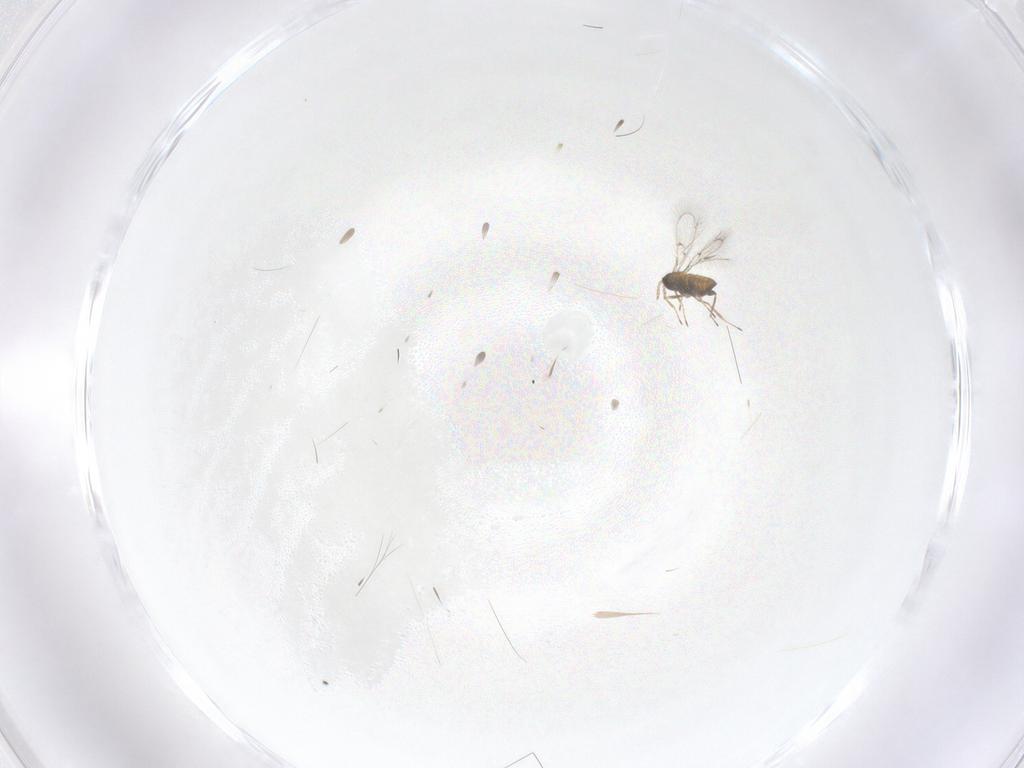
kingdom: Animalia
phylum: Arthropoda
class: Insecta
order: Hymenoptera
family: Trichogrammatidae
